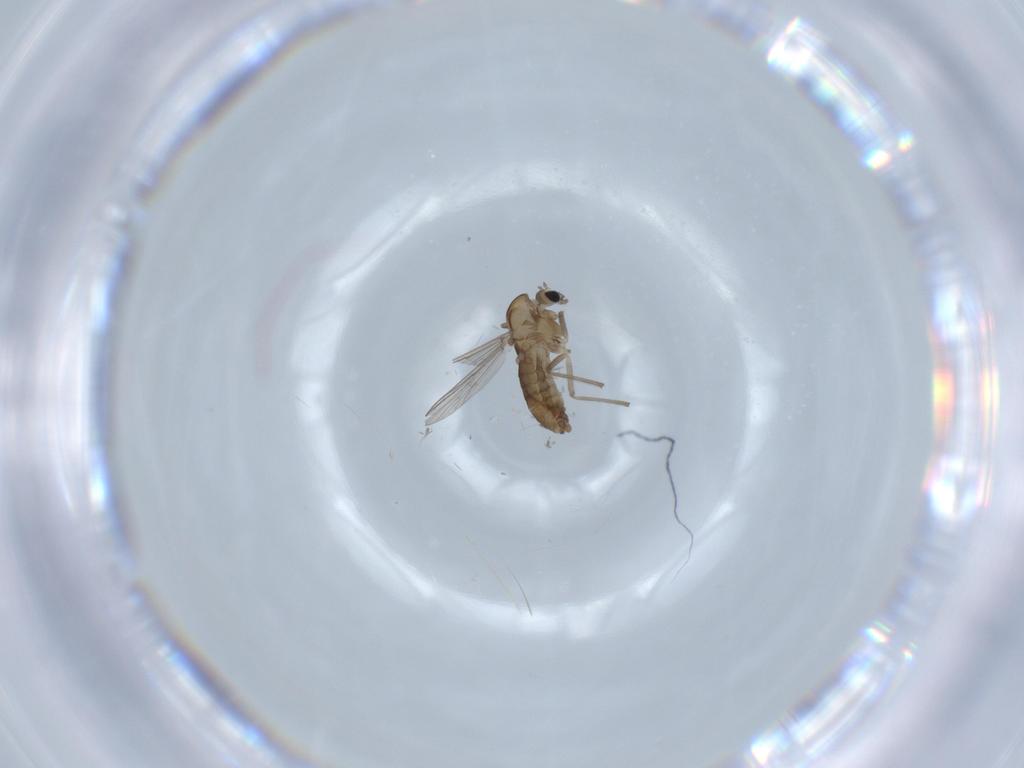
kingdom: Animalia
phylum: Arthropoda
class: Insecta
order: Diptera
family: Chironomidae
